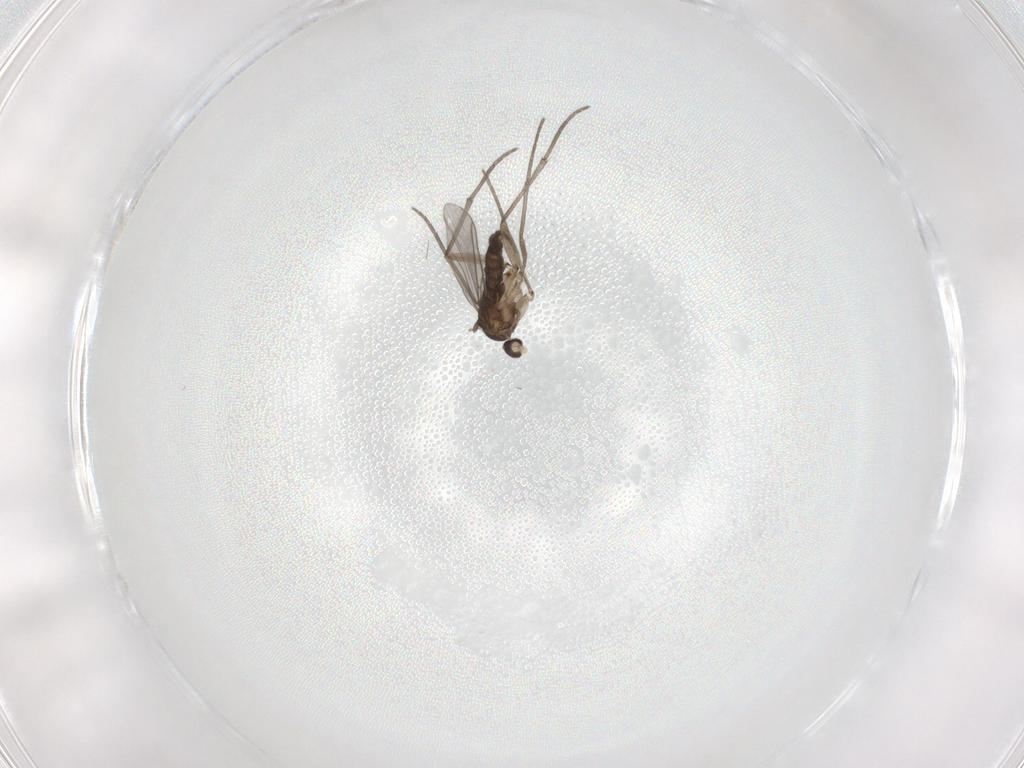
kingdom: Animalia
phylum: Arthropoda
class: Insecta
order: Diptera
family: Sciaridae
